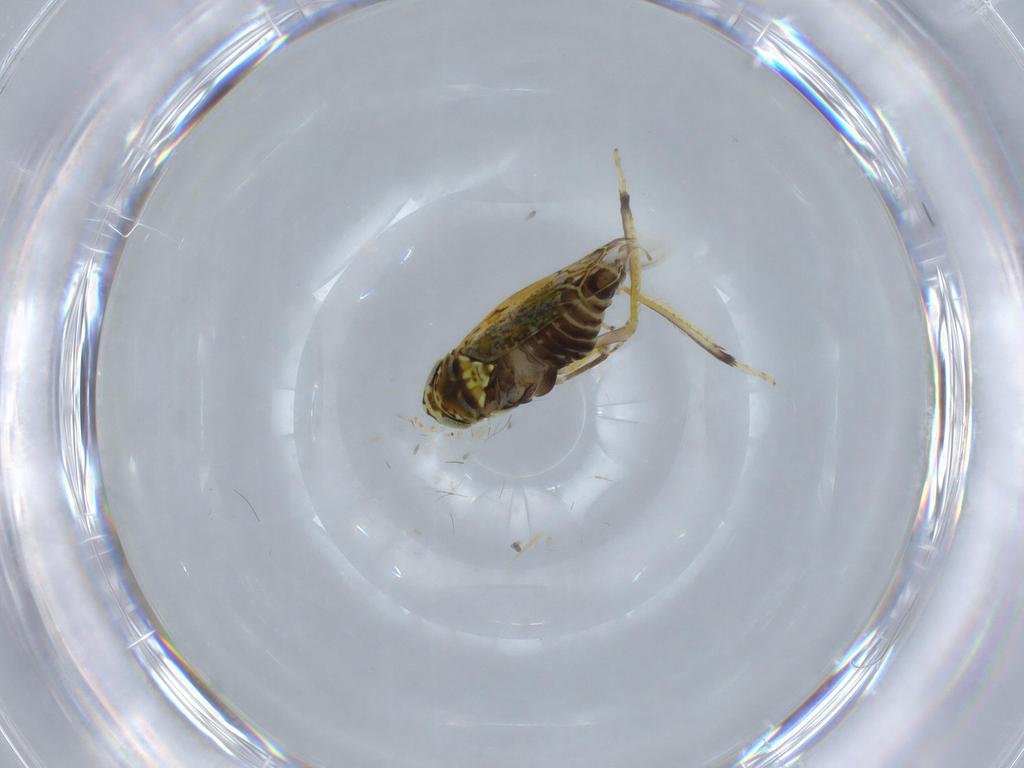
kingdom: Animalia
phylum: Arthropoda
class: Insecta
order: Hemiptera
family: Cicadellidae
